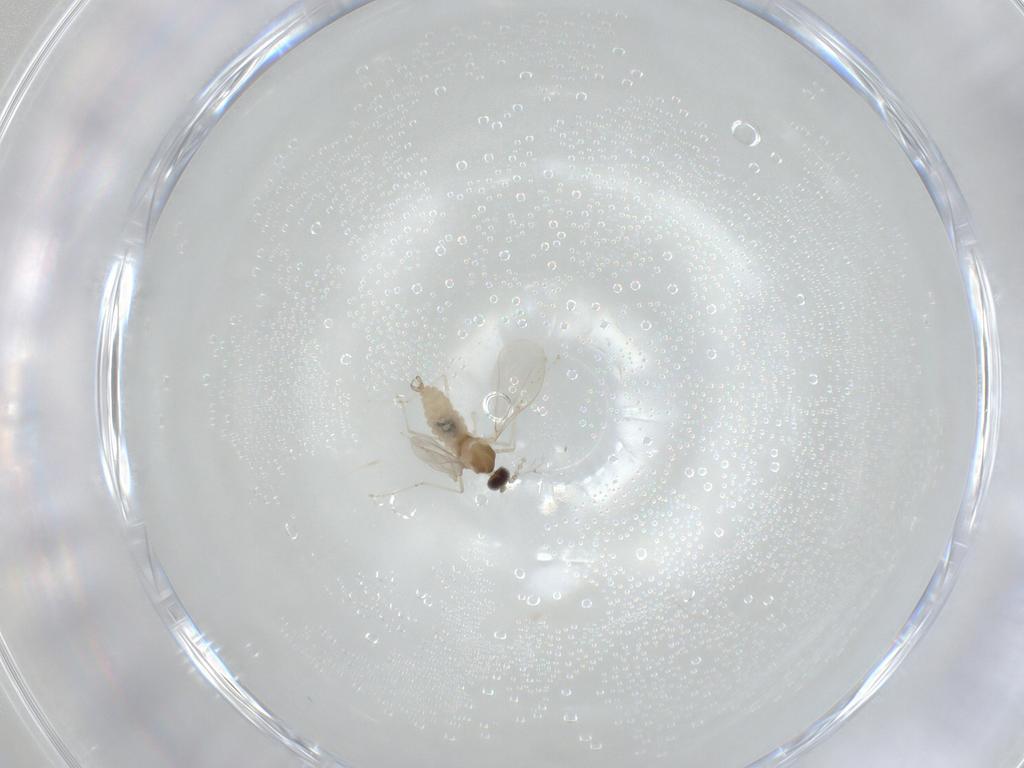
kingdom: Animalia
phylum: Arthropoda
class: Insecta
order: Diptera
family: Cecidomyiidae
